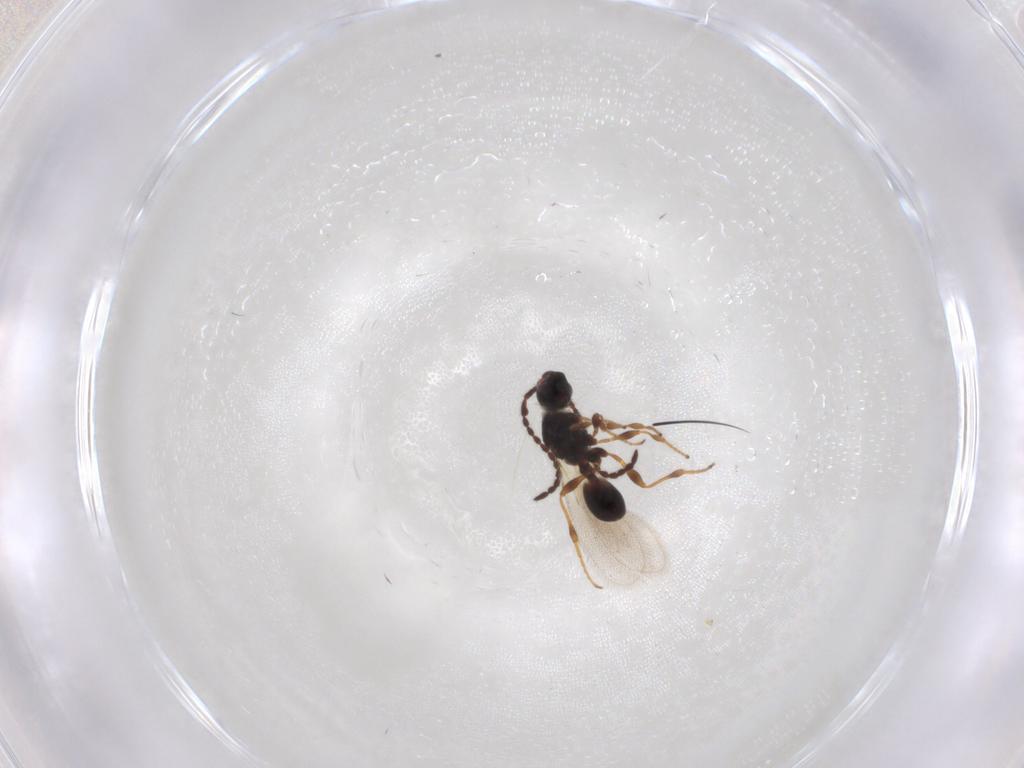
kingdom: Animalia
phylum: Arthropoda
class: Insecta
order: Hymenoptera
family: Diapriidae
